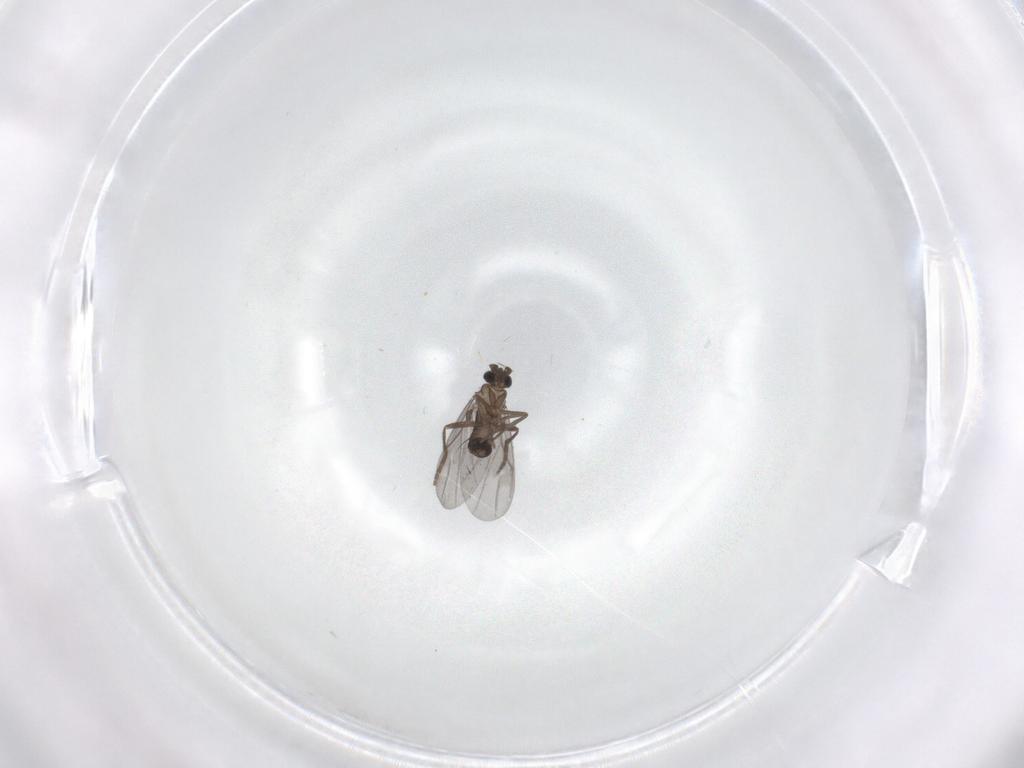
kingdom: Animalia
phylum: Arthropoda
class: Insecta
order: Diptera
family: Phoridae
